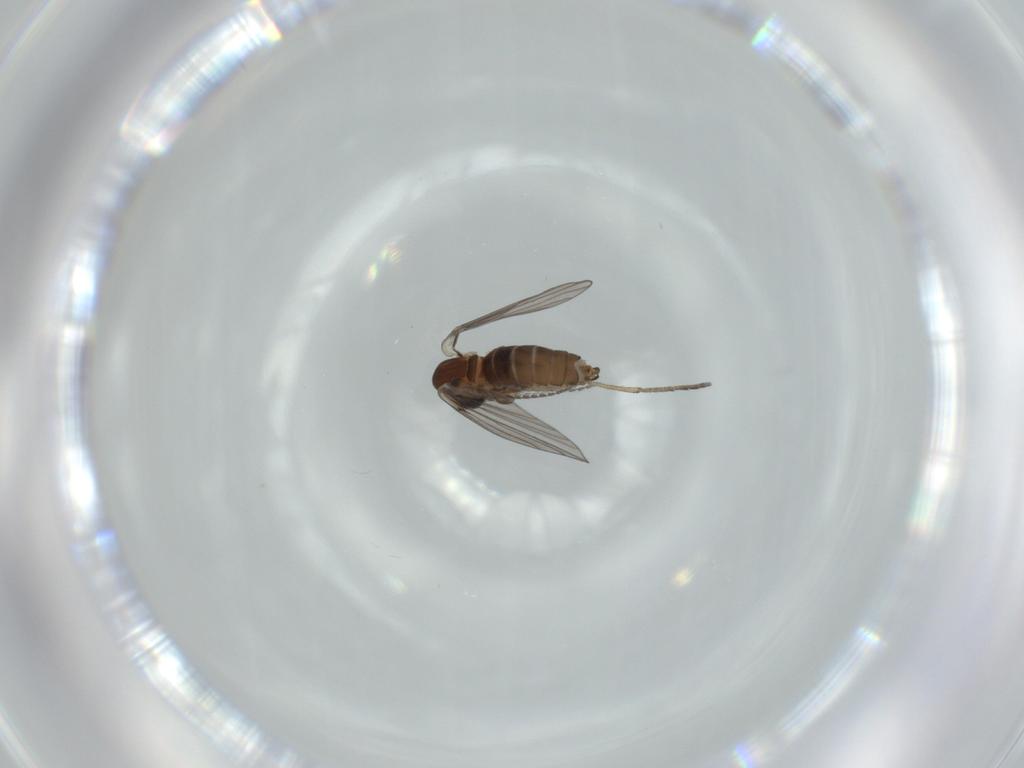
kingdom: Animalia
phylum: Arthropoda
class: Insecta
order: Diptera
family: Psychodidae
